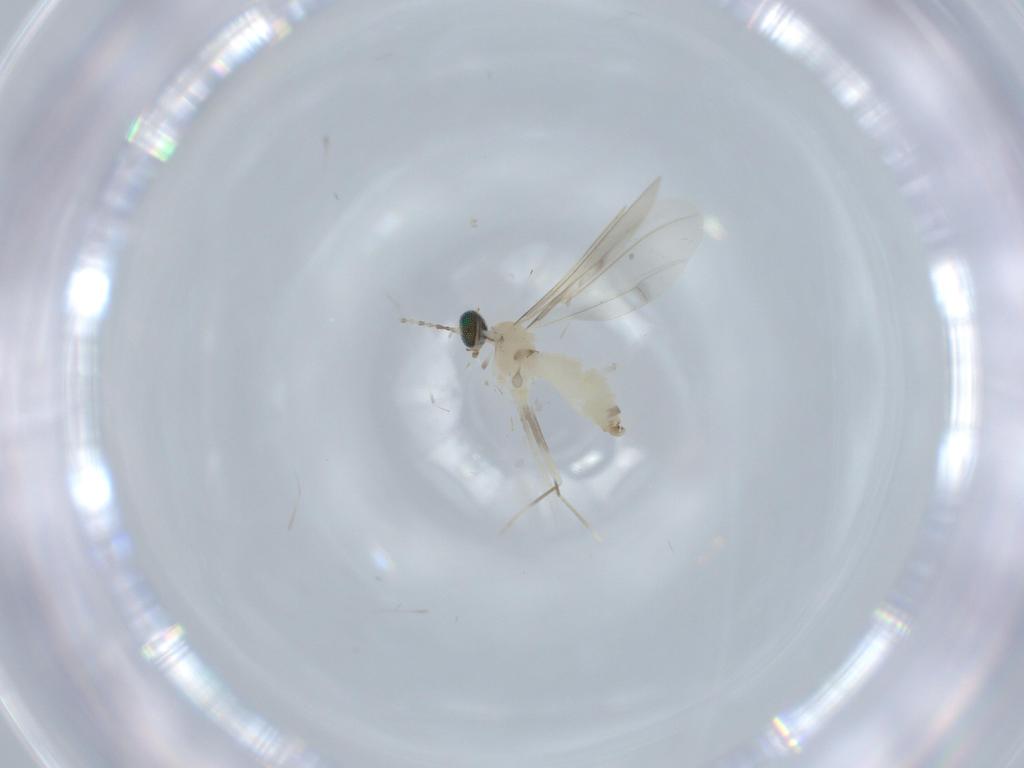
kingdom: Animalia
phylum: Arthropoda
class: Insecta
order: Diptera
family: Cecidomyiidae
